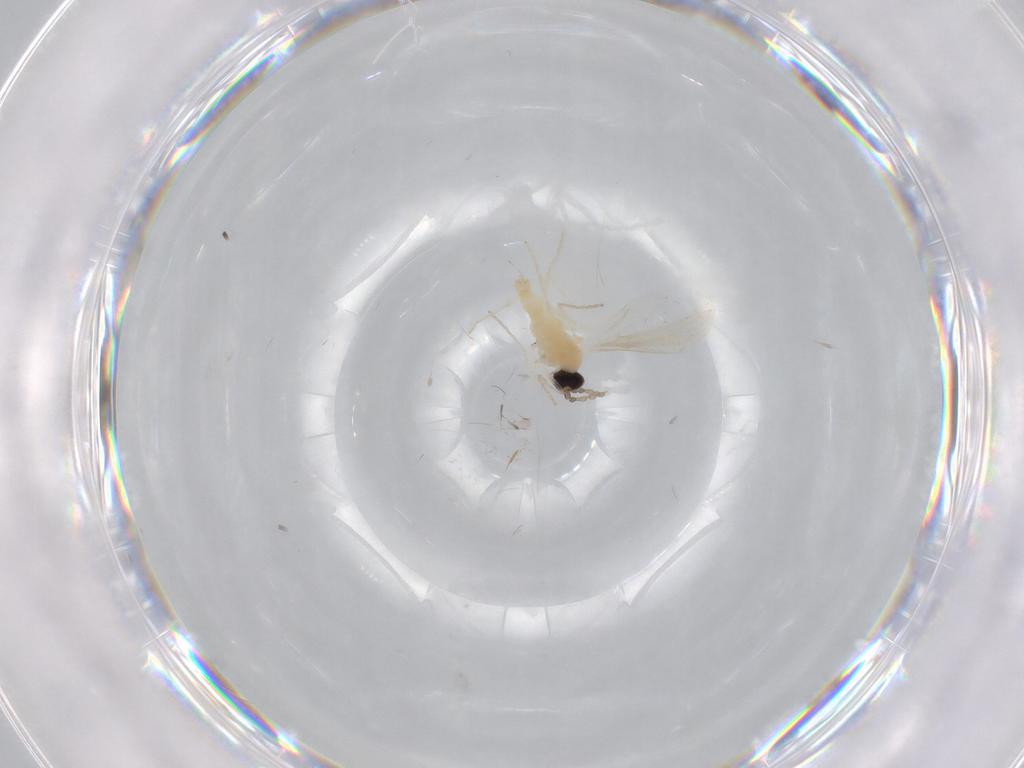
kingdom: Animalia
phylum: Arthropoda
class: Insecta
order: Diptera
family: Cecidomyiidae
